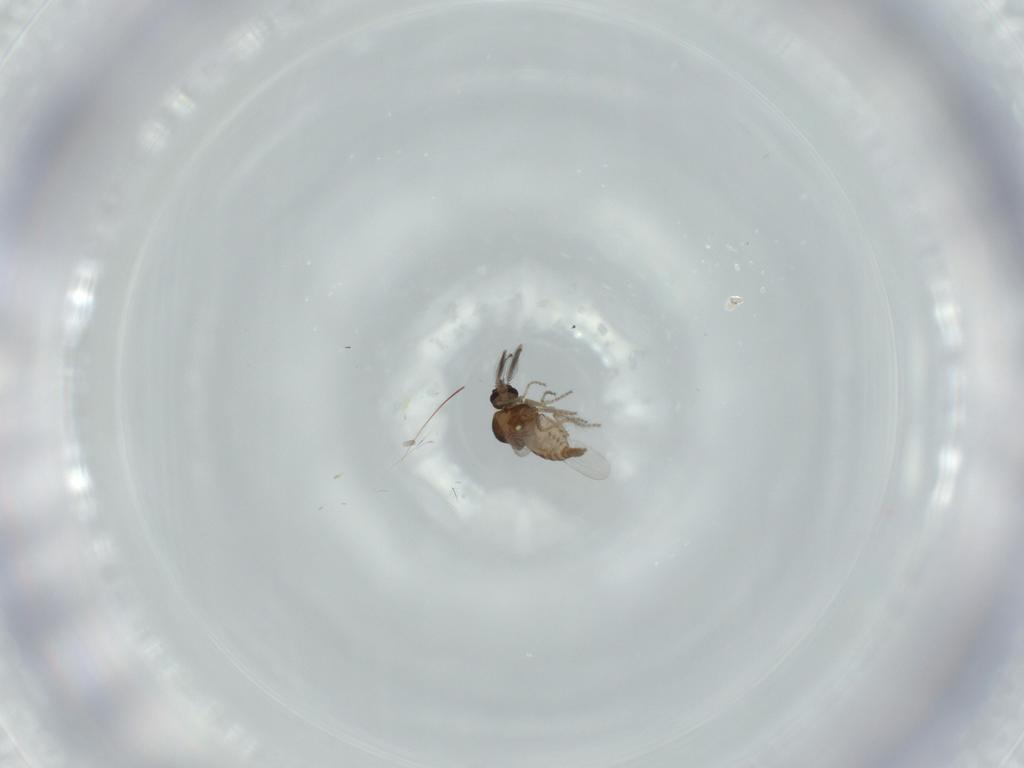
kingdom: Animalia
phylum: Arthropoda
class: Insecta
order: Diptera
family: Ceratopogonidae
